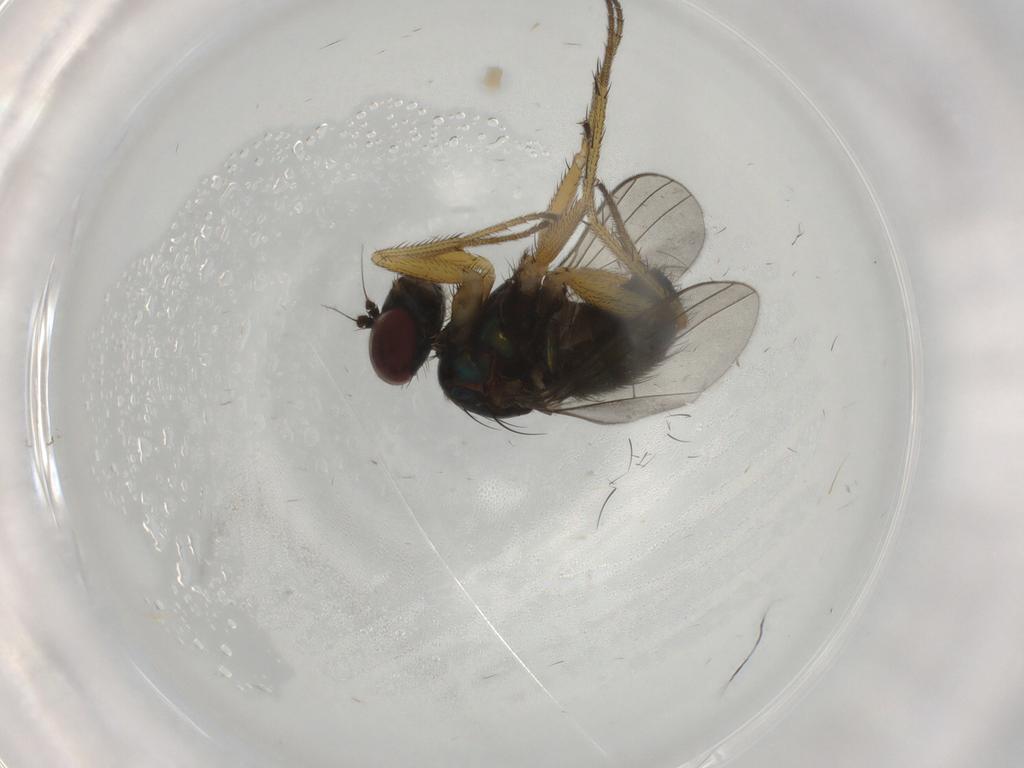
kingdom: Animalia
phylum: Arthropoda
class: Insecta
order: Diptera
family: Dolichopodidae
